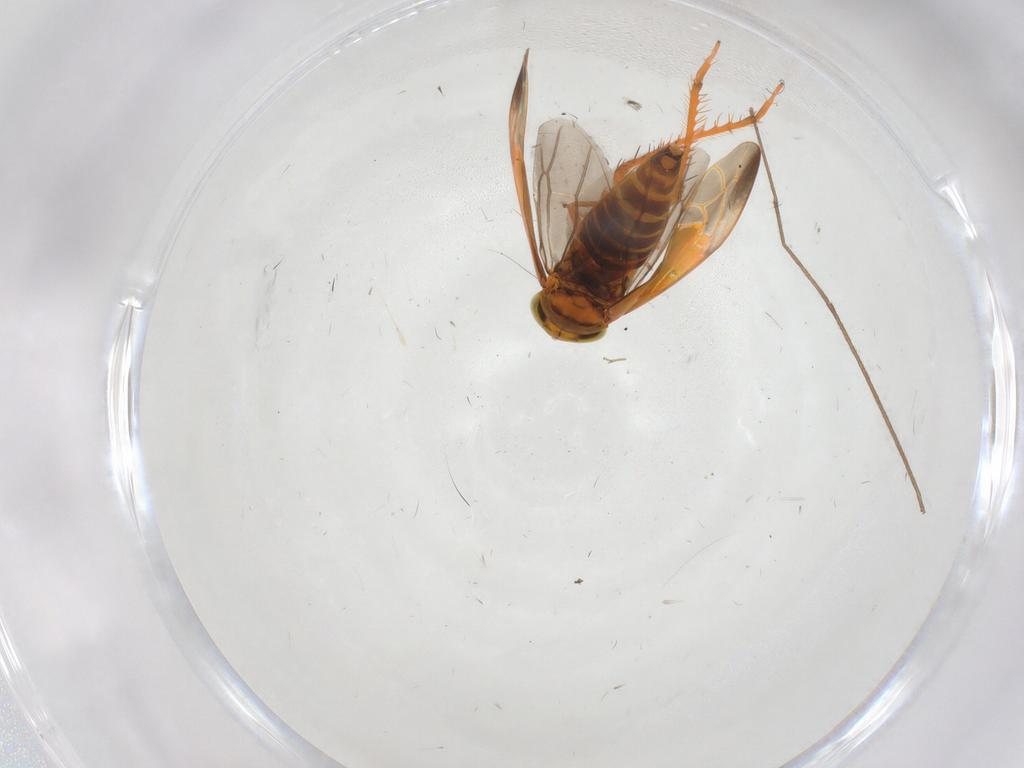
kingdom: Animalia
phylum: Arthropoda
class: Insecta
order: Hemiptera
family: Cicadellidae
